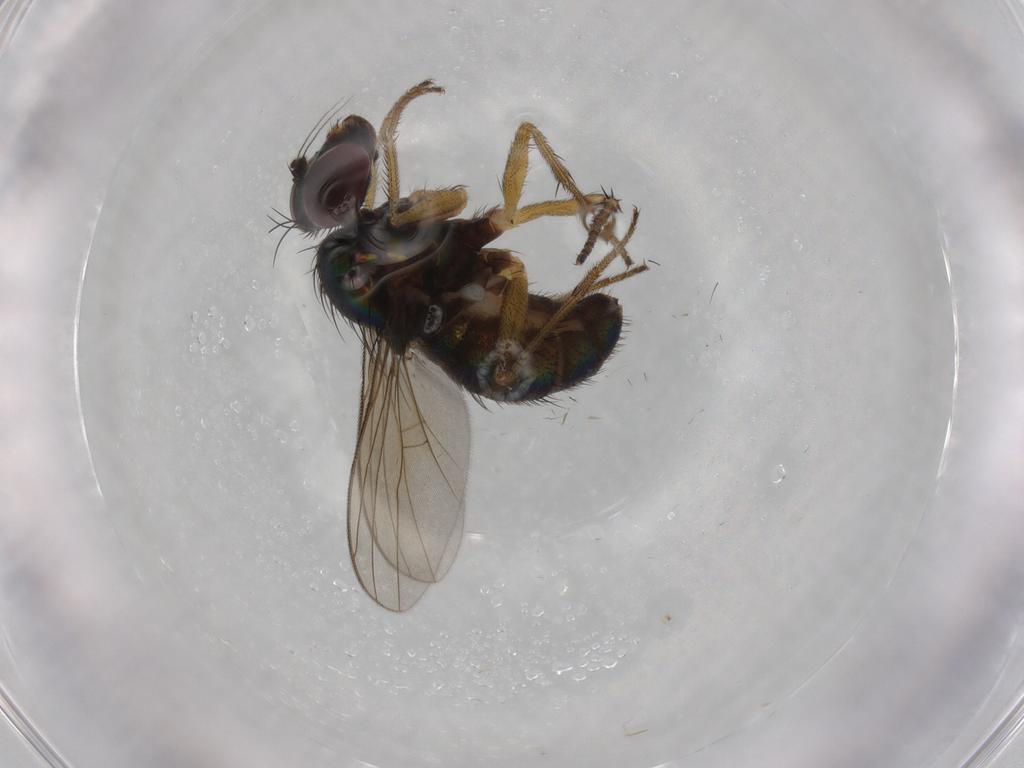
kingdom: Animalia
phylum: Arthropoda
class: Insecta
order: Diptera
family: Dolichopodidae
